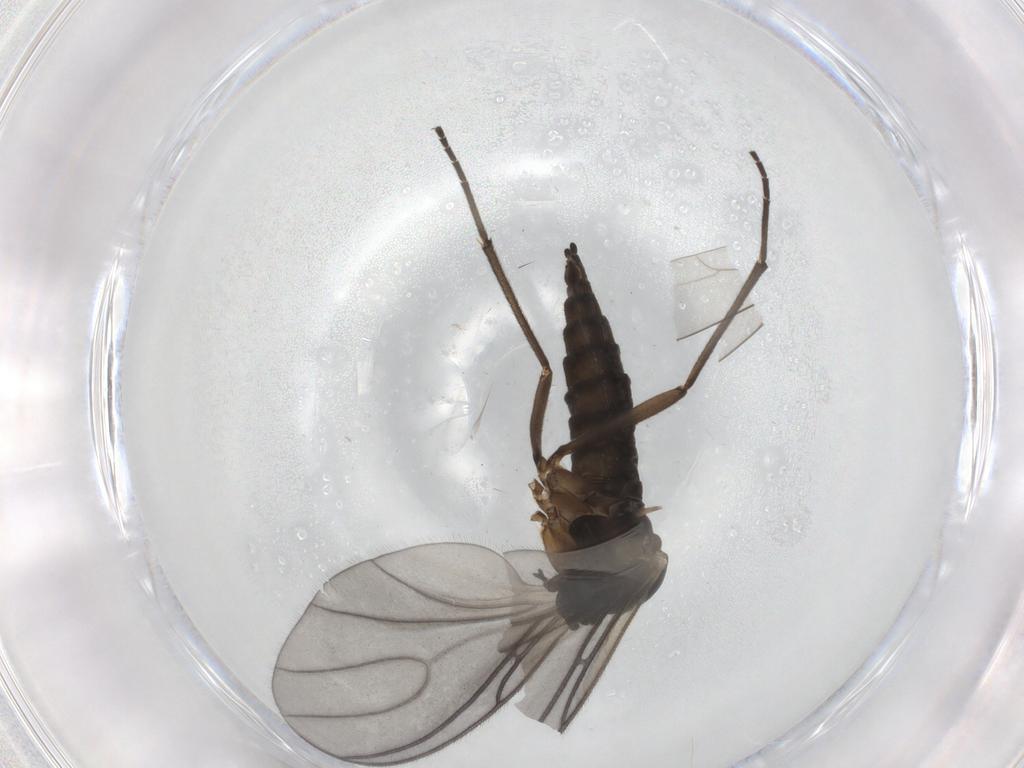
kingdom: Animalia
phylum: Arthropoda
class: Insecta
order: Diptera
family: Sciaridae
